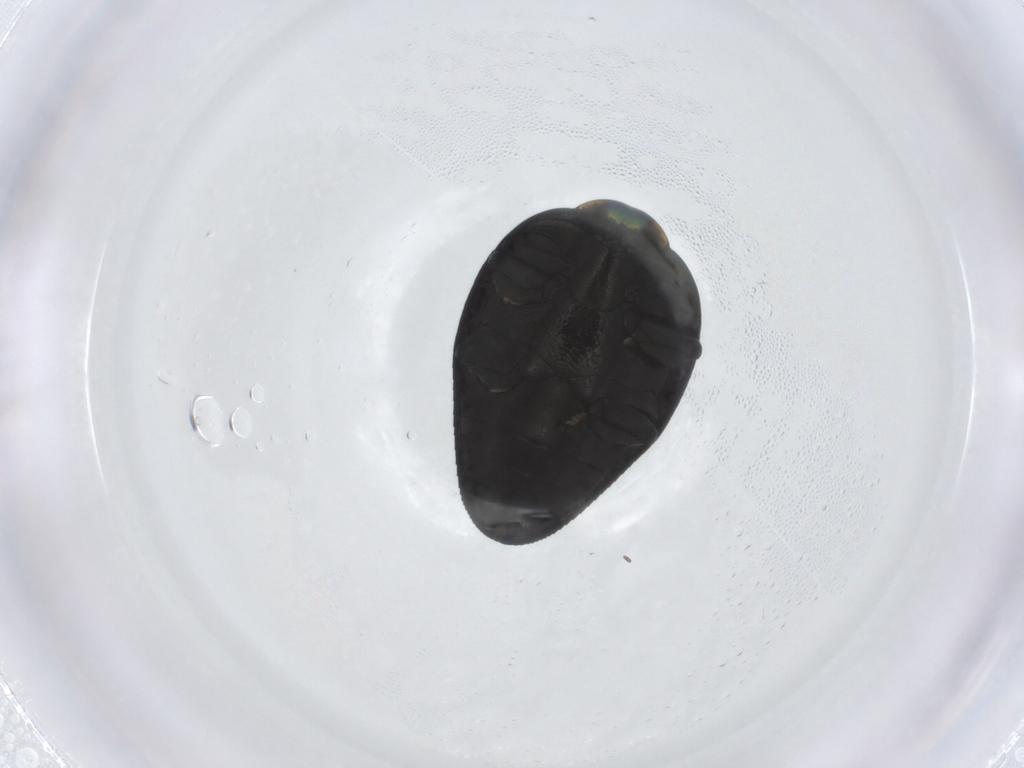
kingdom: Animalia
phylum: Arthropoda
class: Insecta
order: Coleoptera
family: Buprestidae
